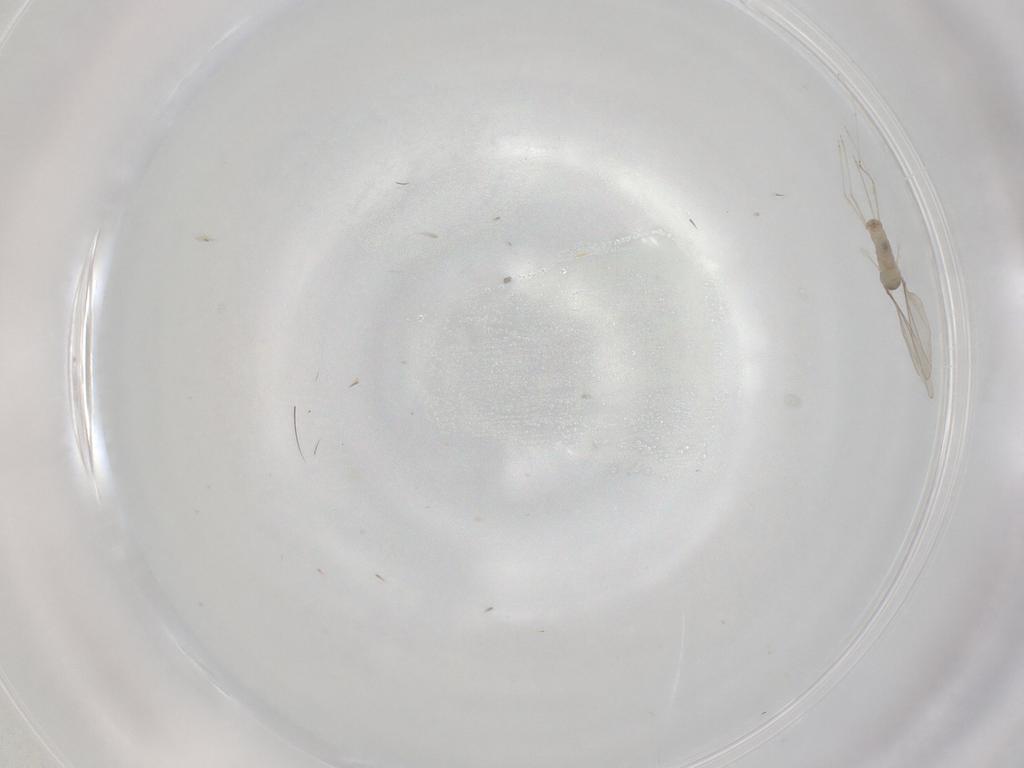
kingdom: Animalia
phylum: Arthropoda
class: Insecta
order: Diptera
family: Cecidomyiidae
